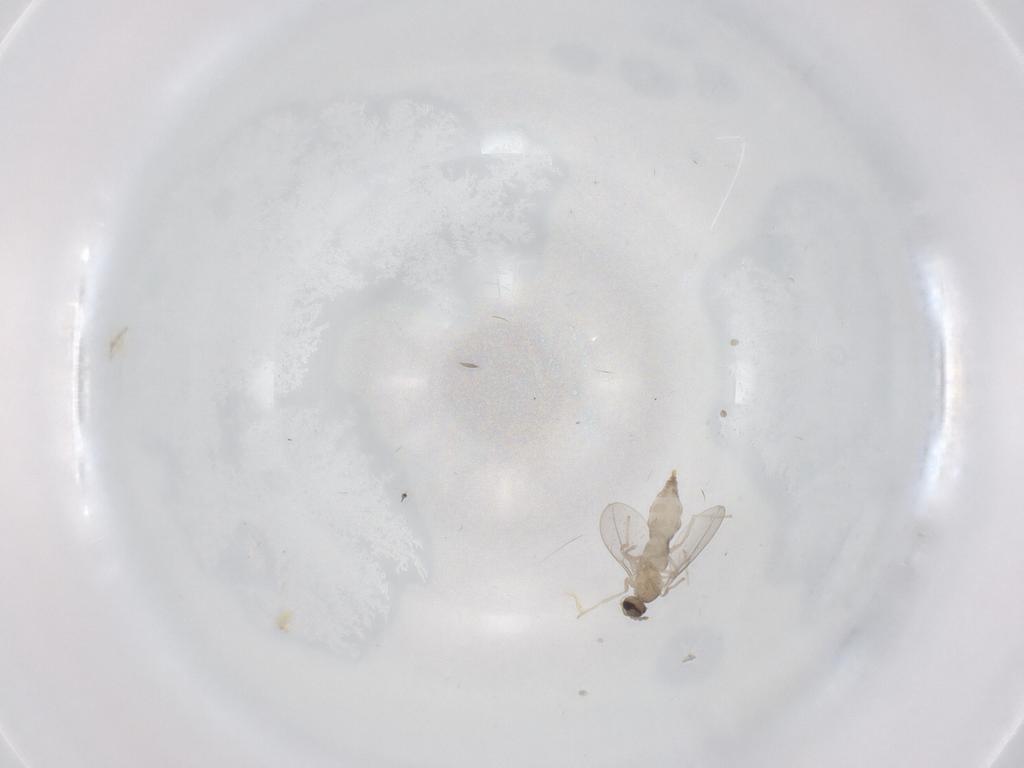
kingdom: Animalia
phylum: Arthropoda
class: Insecta
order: Diptera
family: Cecidomyiidae
